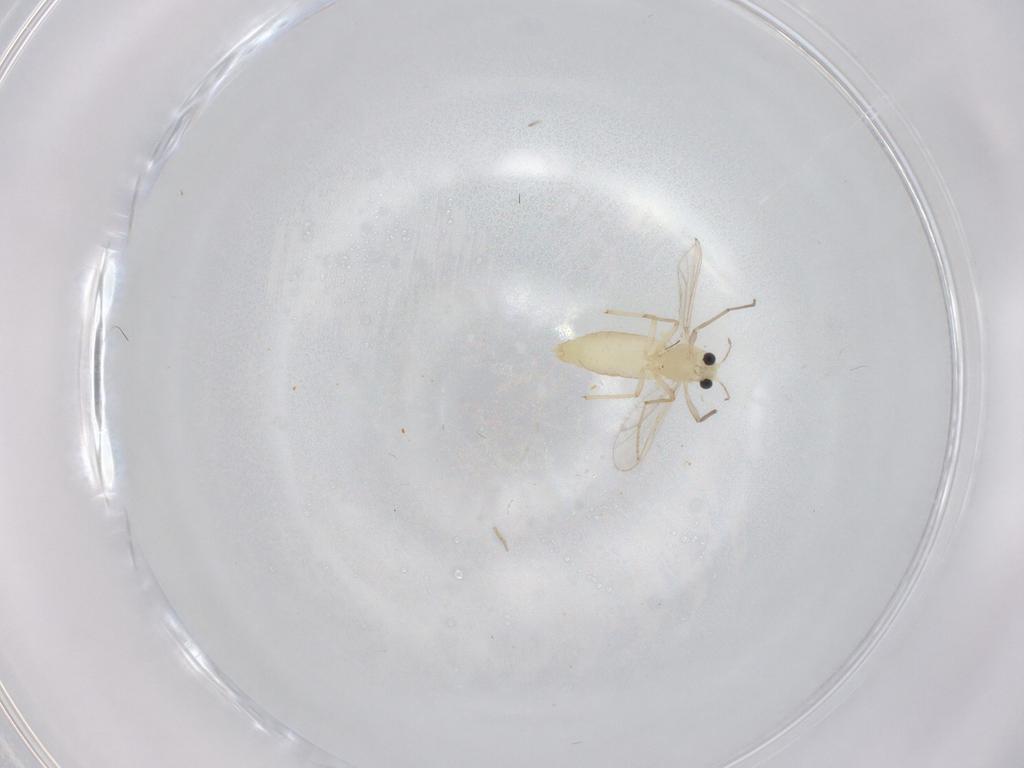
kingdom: Animalia
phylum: Arthropoda
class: Insecta
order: Diptera
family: Chironomidae
